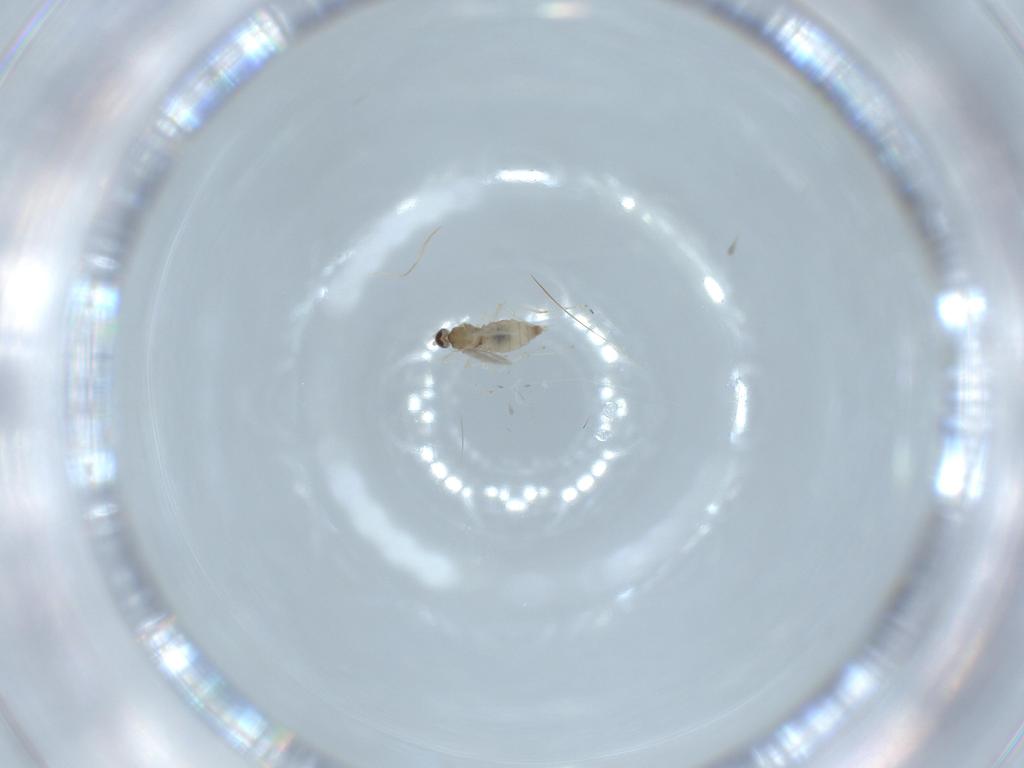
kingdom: Animalia
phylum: Arthropoda
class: Insecta
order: Diptera
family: Cecidomyiidae
